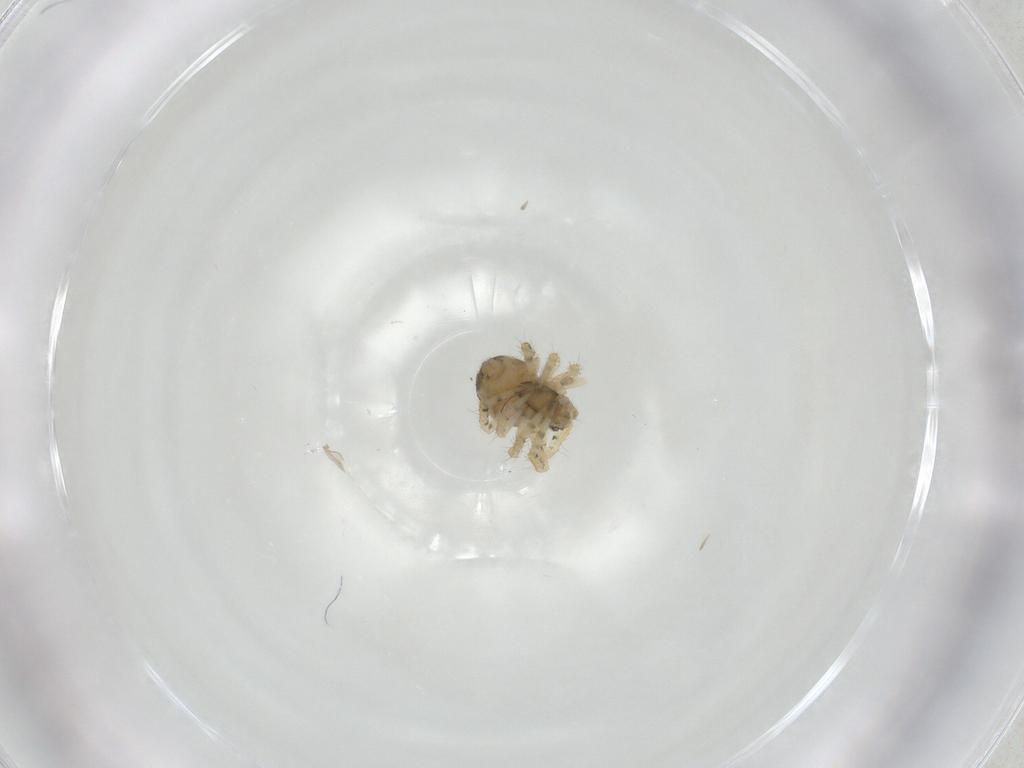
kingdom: Animalia
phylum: Arthropoda
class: Arachnida
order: Araneae
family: Theridiidae
